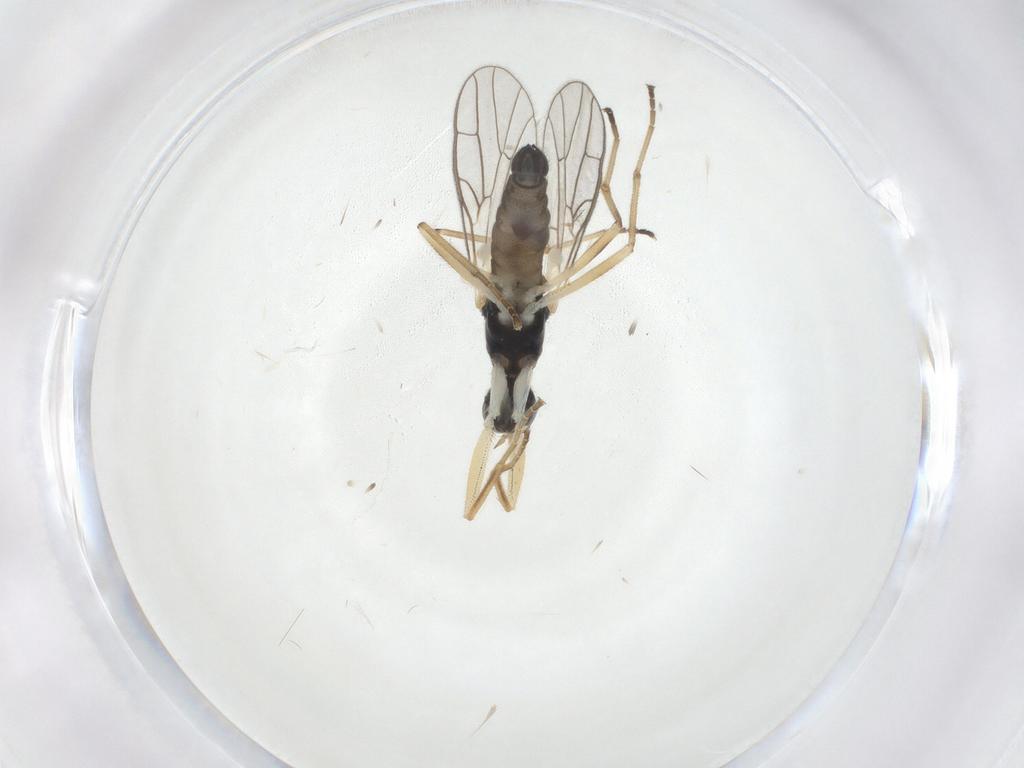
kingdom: Animalia
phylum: Arthropoda
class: Insecta
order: Diptera
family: Empididae
